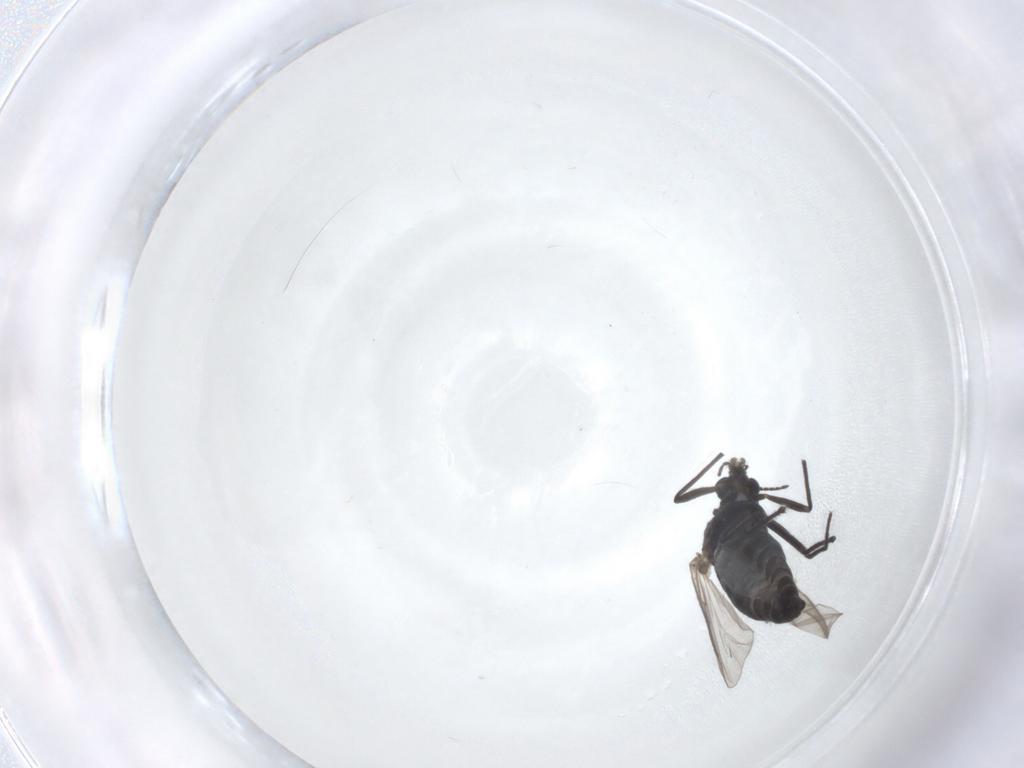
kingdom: Animalia
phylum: Arthropoda
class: Insecta
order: Diptera
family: Chironomidae
